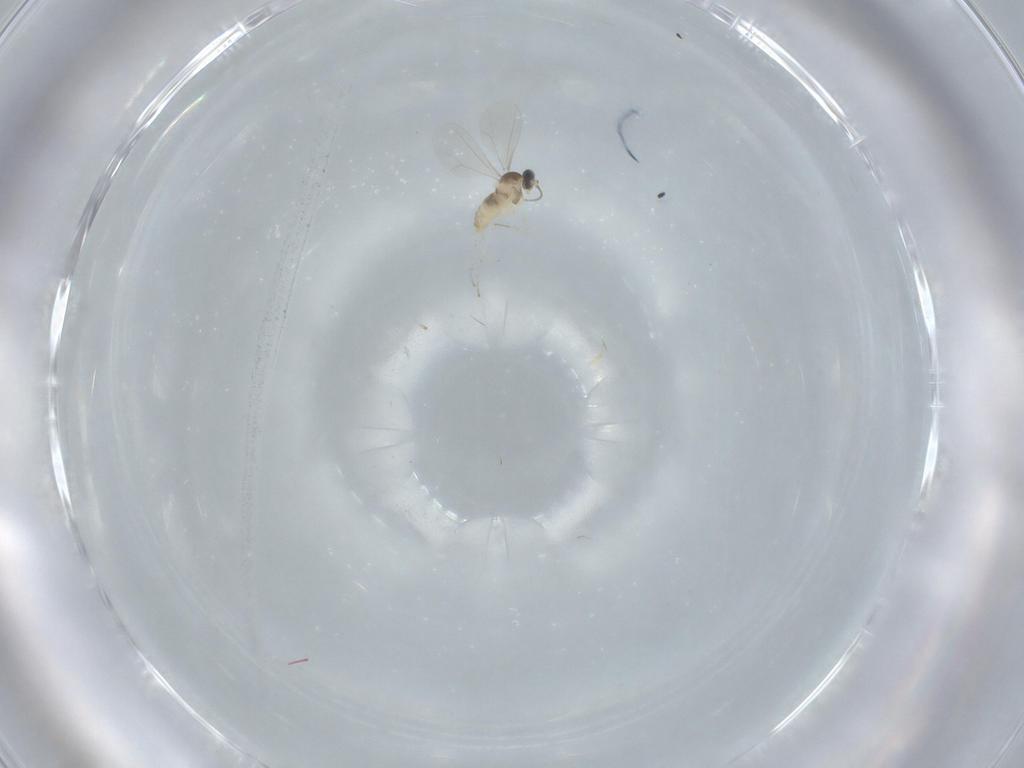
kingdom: Animalia
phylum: Arthropoda
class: Insecta
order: Diptera
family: Cecidomyiidae
